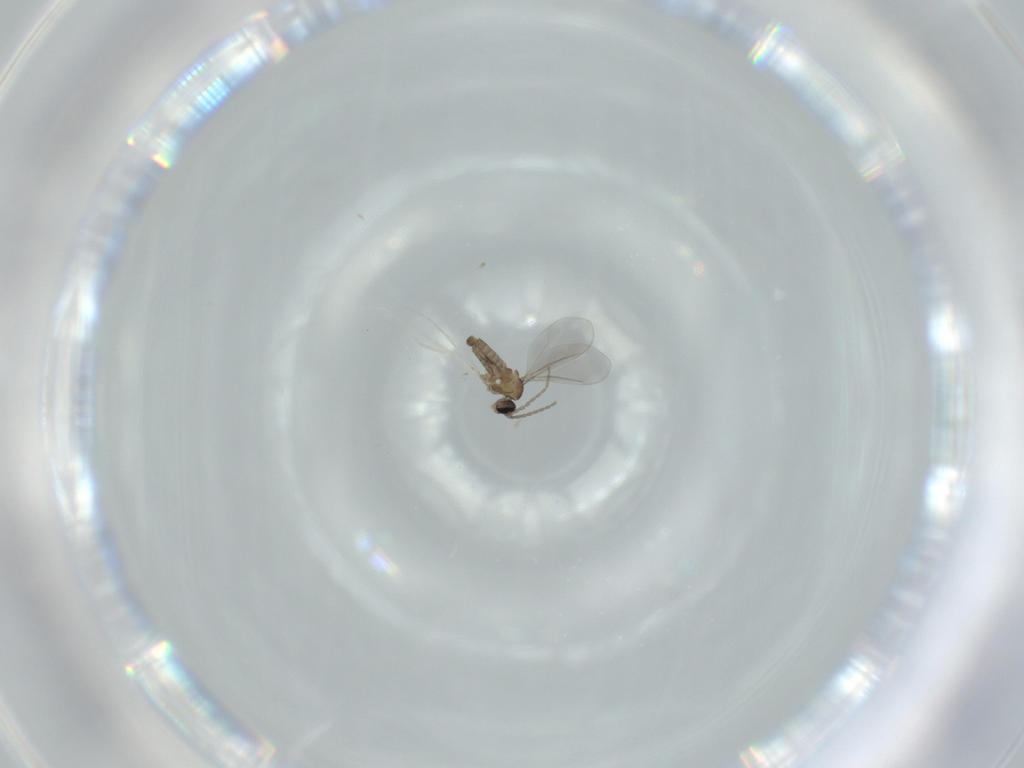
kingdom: Animalia
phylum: Arthropoda
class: Insecta
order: Diptera
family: Cecidomyiidae
